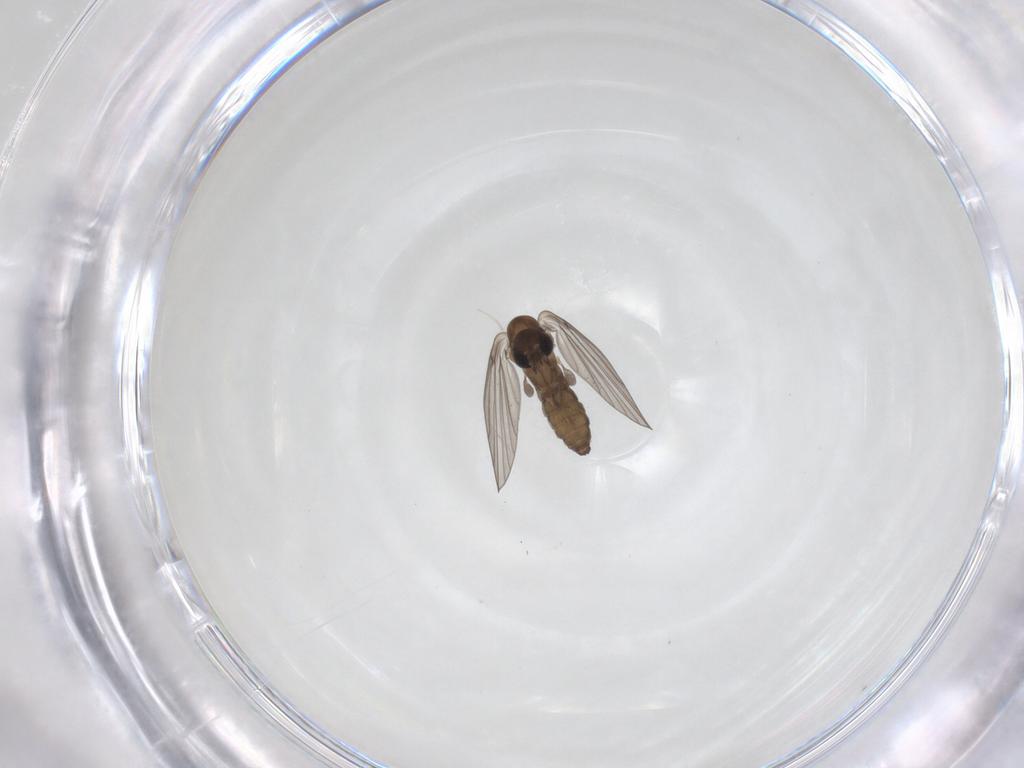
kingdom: Animalia
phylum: Arthropoda
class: Insecta
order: Diptera
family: Psychodidae
